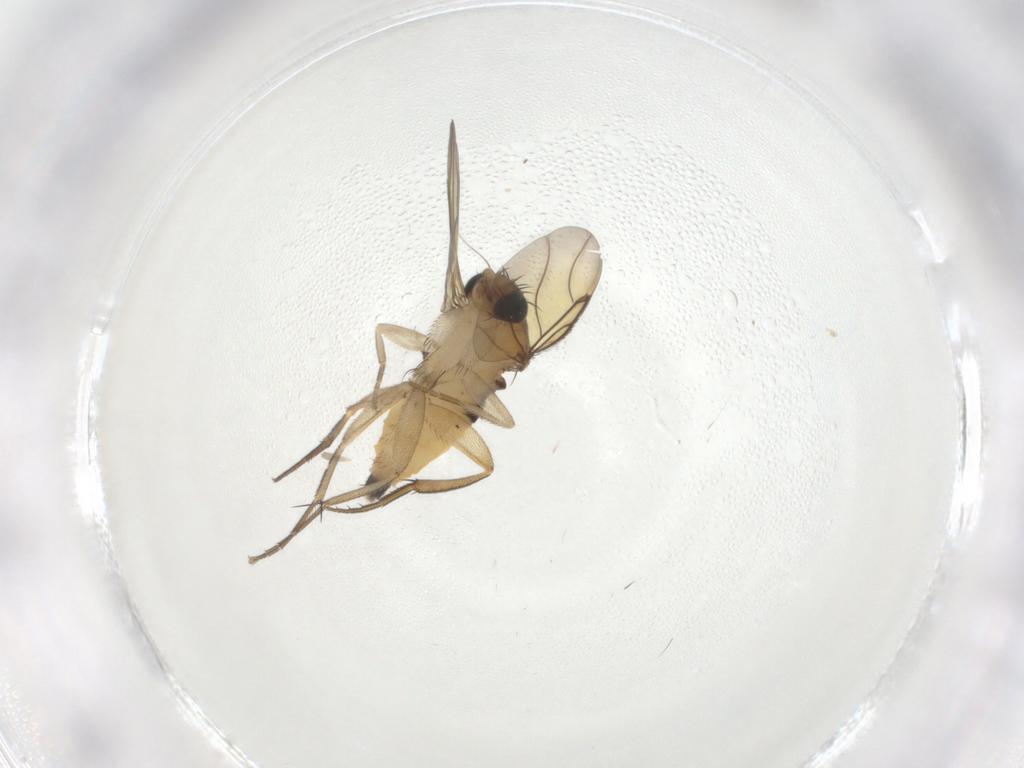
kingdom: Animalia
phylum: Arthropoda
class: Insecta
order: Diptera
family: Cecidomyiidae
